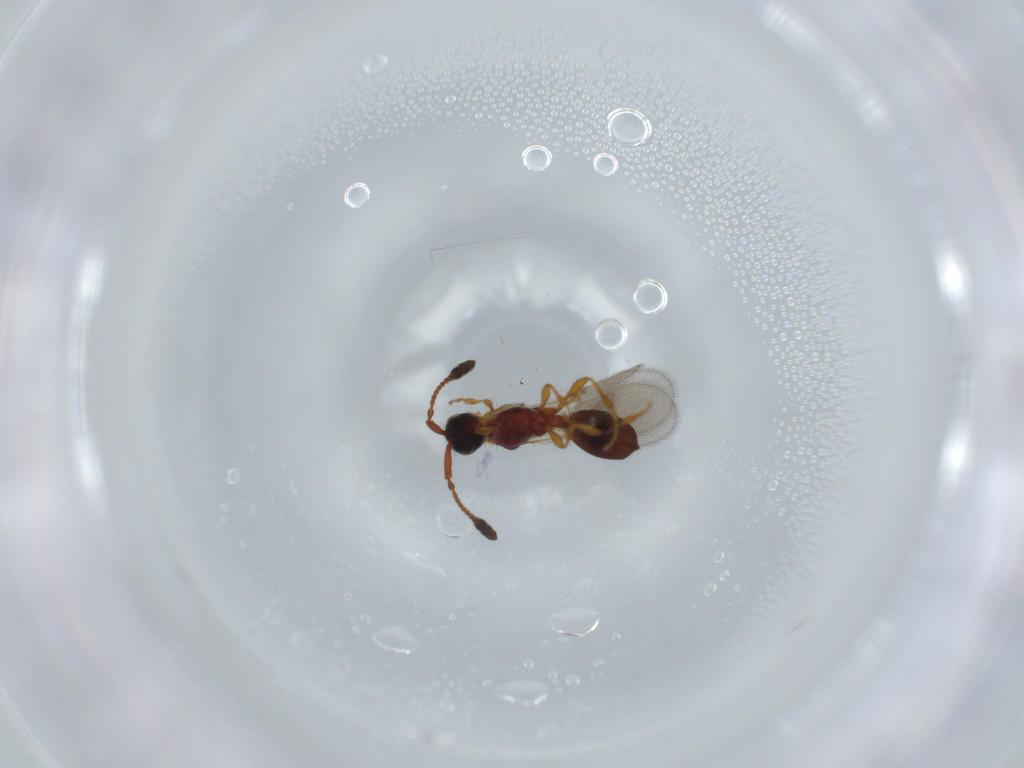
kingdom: Animalia
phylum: Arthropoda
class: Insecta
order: Hymenoptera
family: Diapriidae
